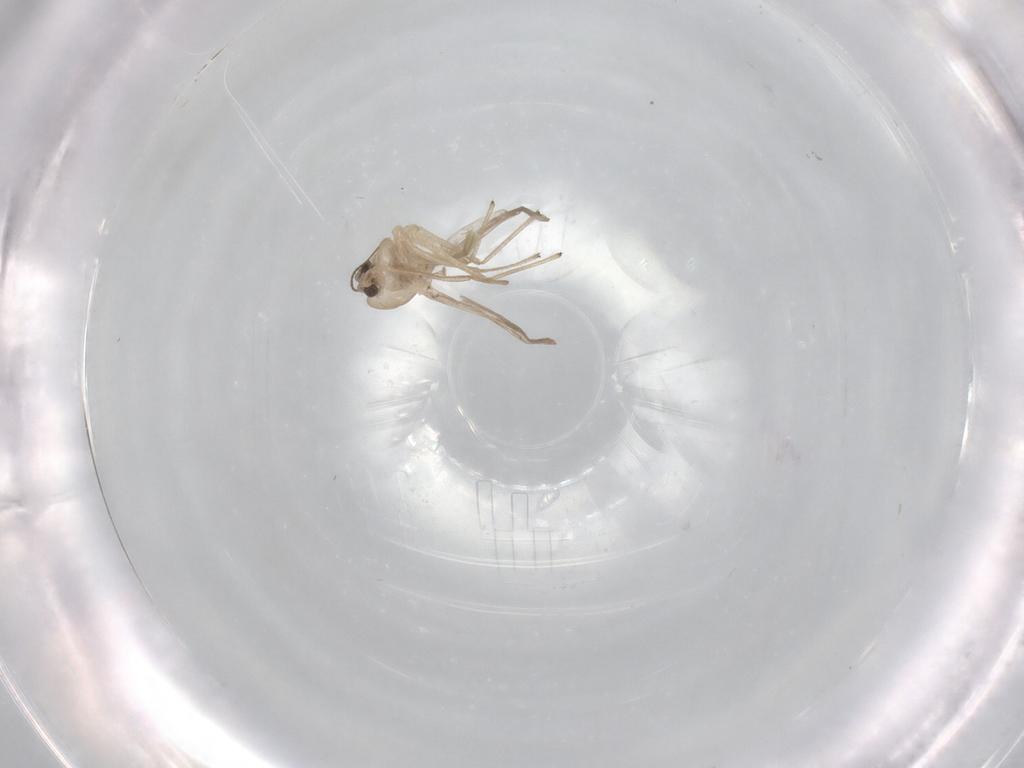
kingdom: Animalia
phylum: Arthropoda
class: Insecta
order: Diptera
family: Chironomidae
